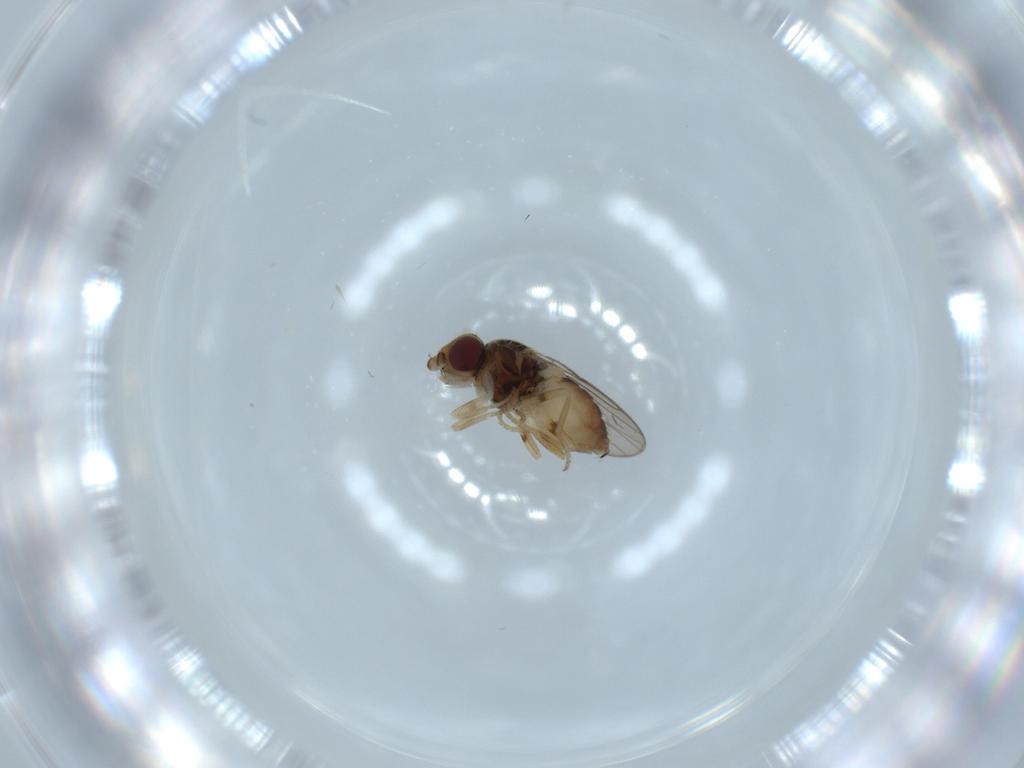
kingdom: Animalia
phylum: Arthropoda
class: Insecta
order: Diptera
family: Chloropidae
